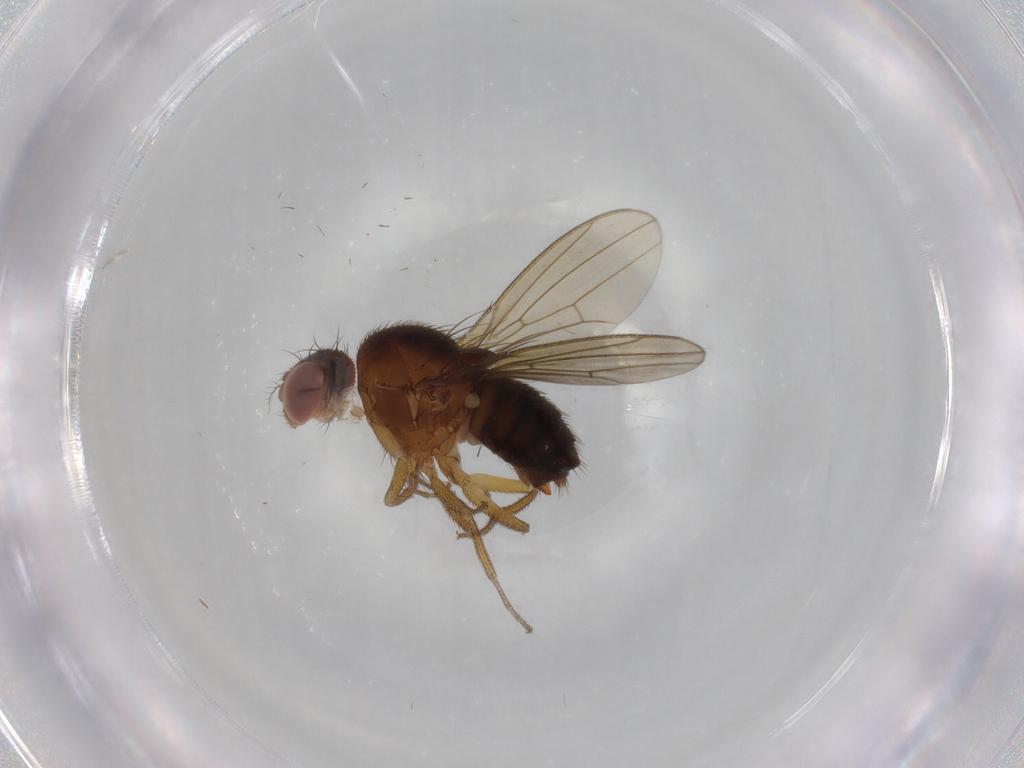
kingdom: Animalia
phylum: Arthropoda
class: Insecta
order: Diptera
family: Drosophilidae
